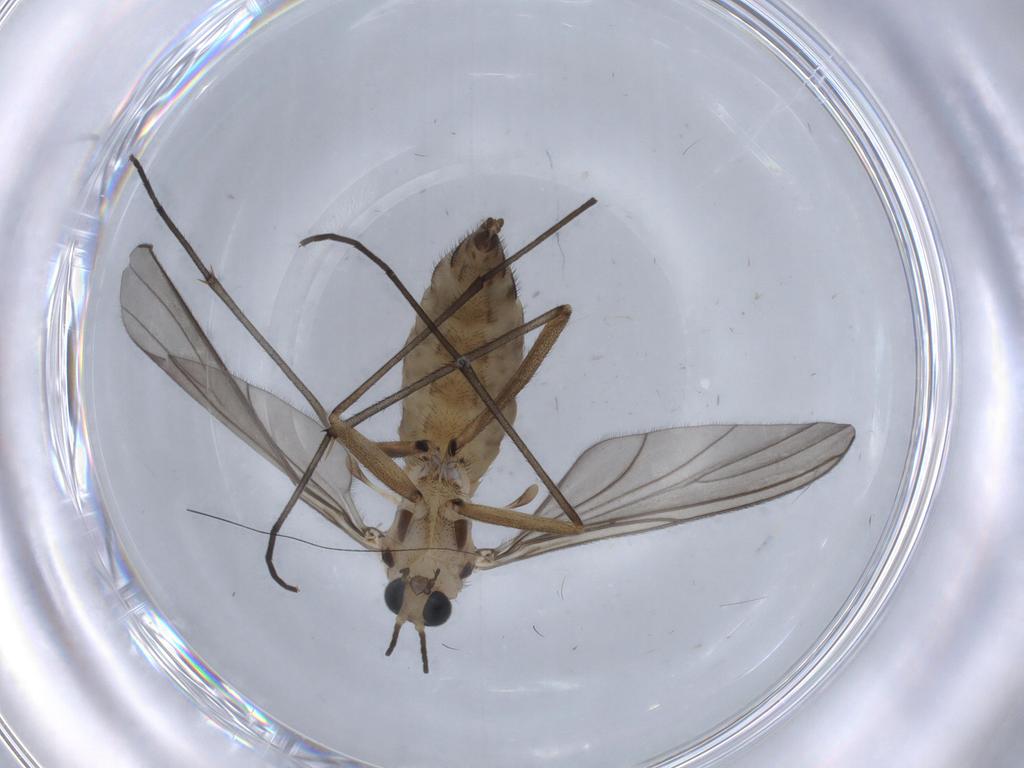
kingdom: Animalia
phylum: Arthropoda
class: Insecta
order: Diptera
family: Sciaridae
